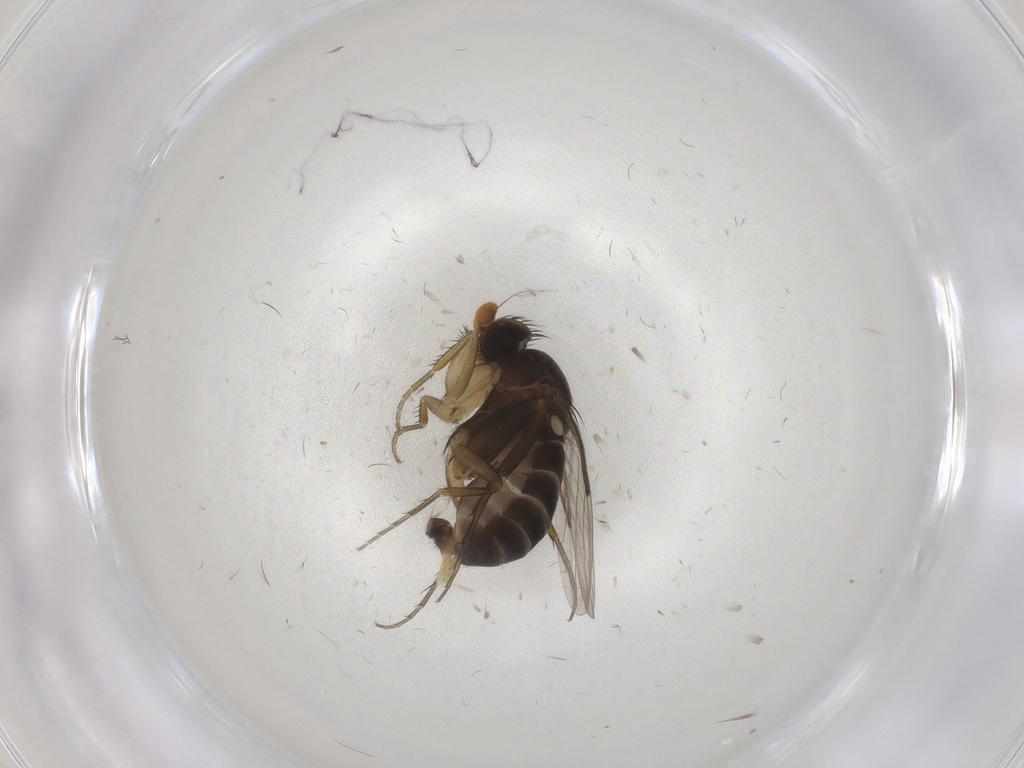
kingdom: Animalia
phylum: Arthropoda
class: Insecta
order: Diptera
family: Phoridae
